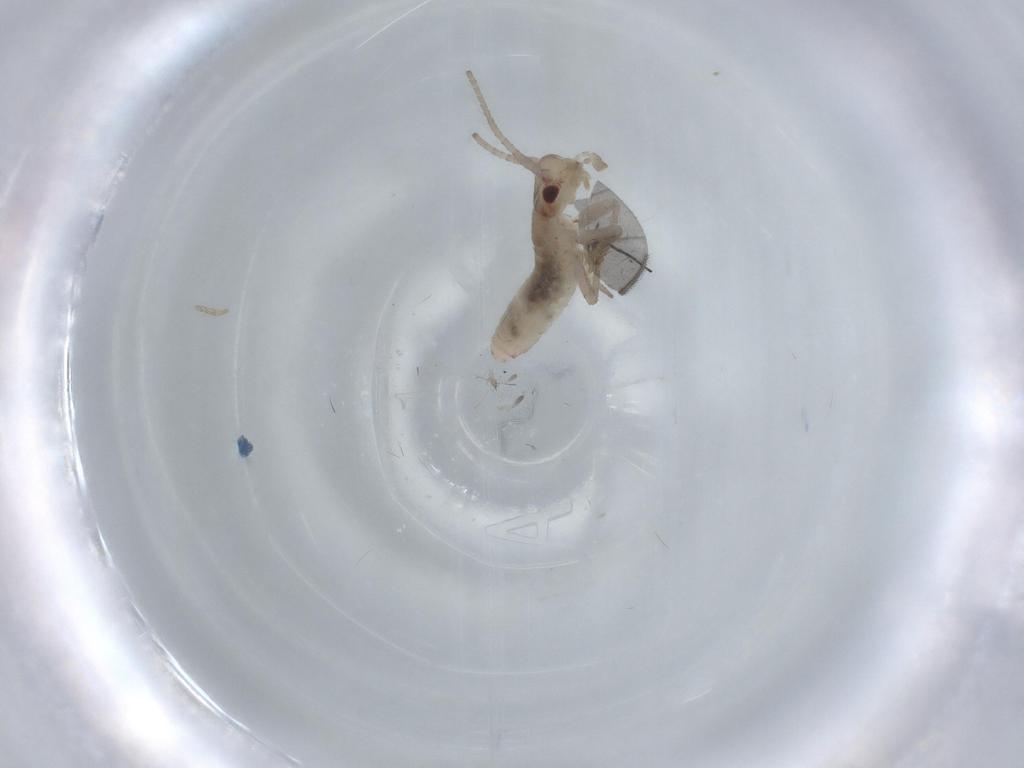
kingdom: Animalia
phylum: Arthropoda
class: Insecta
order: Orthoptera
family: Mogoplistidae
